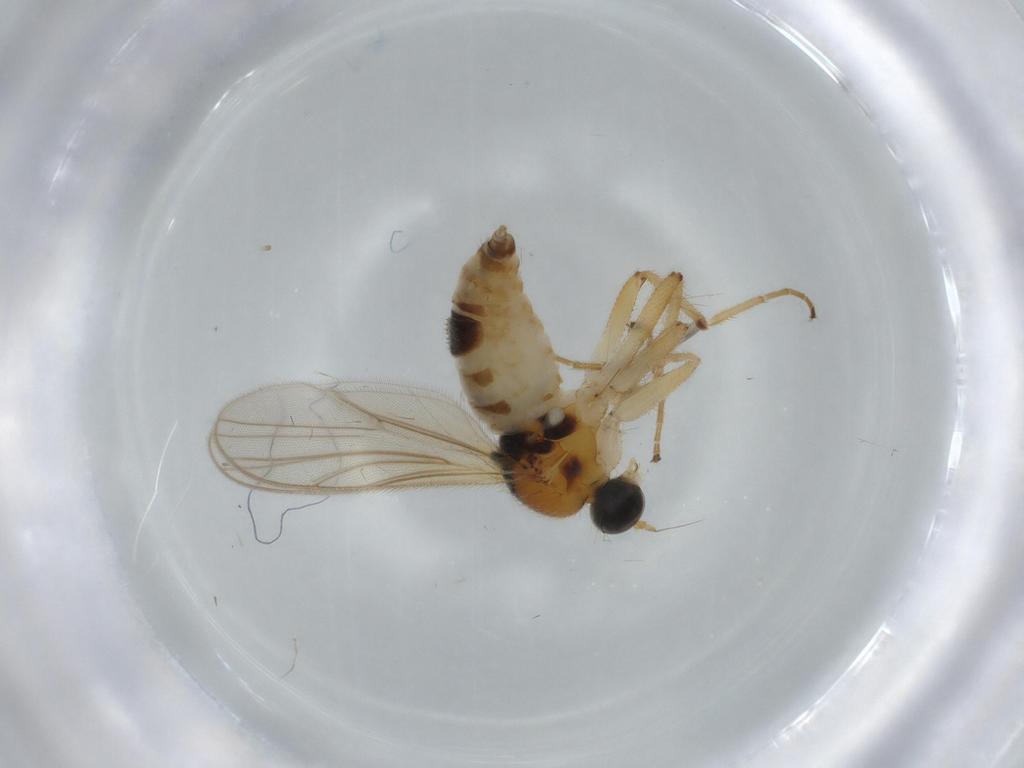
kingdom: Animalia
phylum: Arthropoda
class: Insecta
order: Diptera
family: Hybotidae
